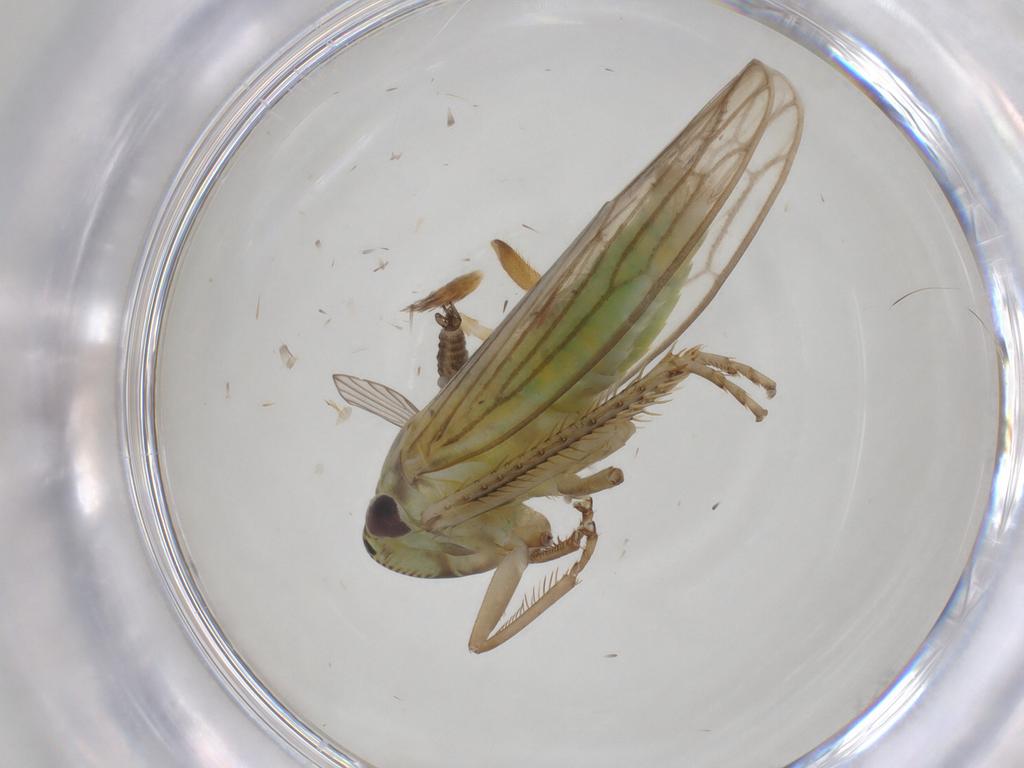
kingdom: Animalia
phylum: Arthropoda
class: Insecta
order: Hemiptera
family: Cicadellidae
